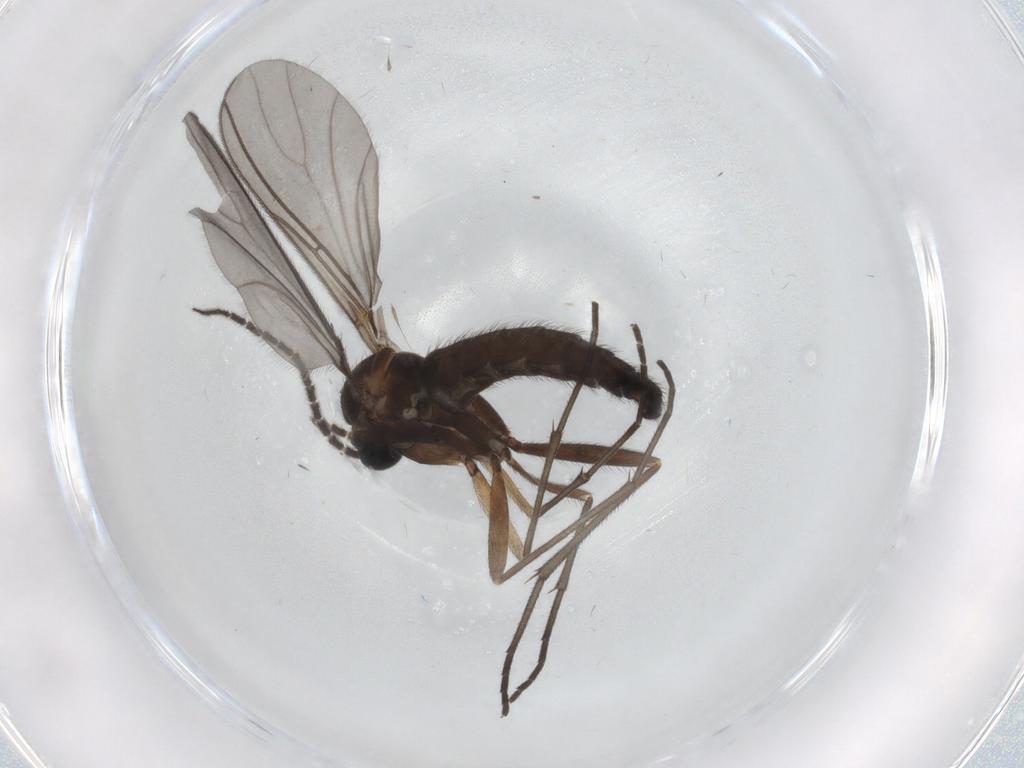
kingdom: Animalia
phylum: Arthropoda
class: Insecta
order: Diptera
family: Sciaridae
